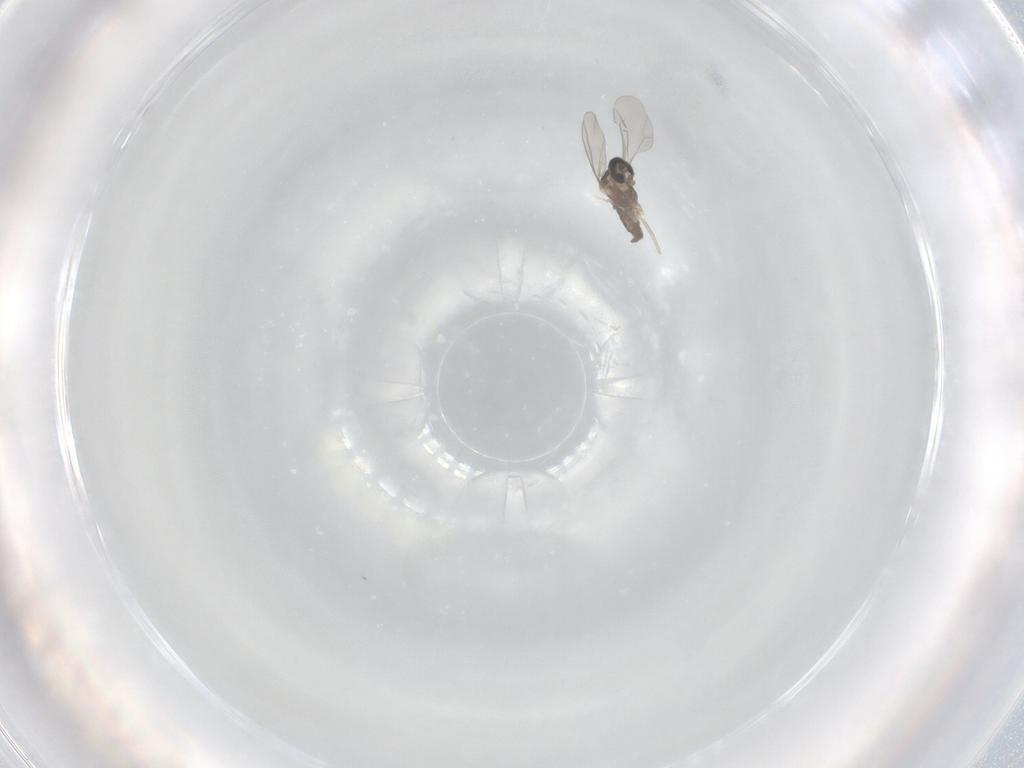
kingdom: Animalia
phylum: Arthropoda
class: Insecta
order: Diptera
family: Cecidomyiidae
